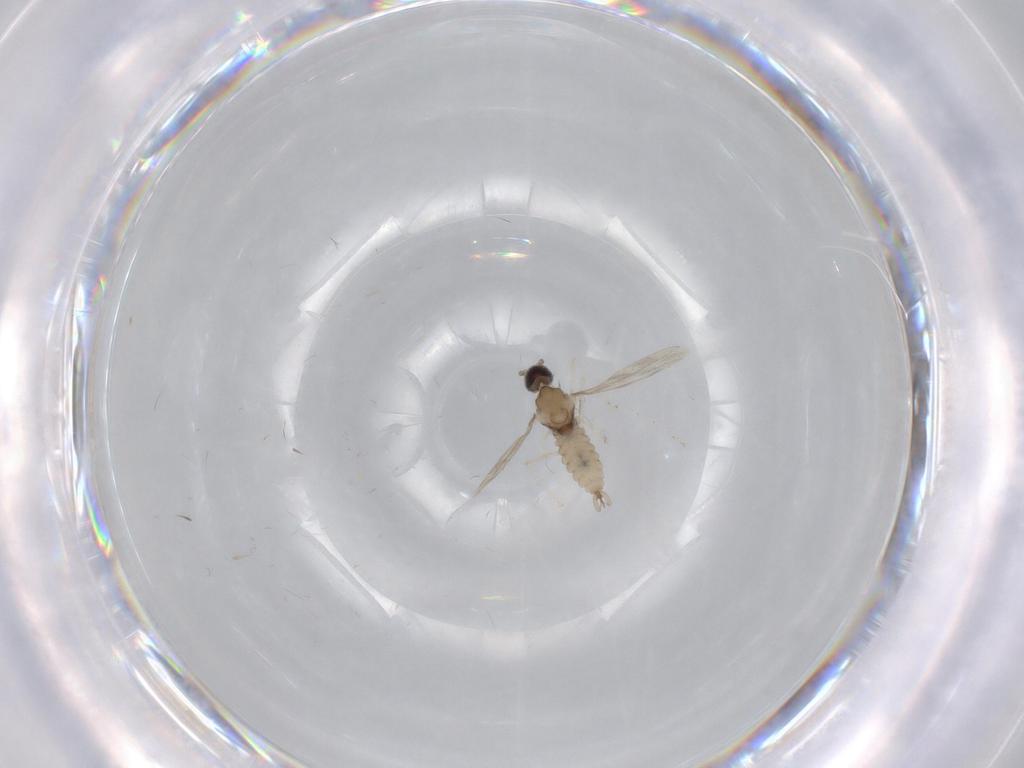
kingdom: Animalia
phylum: Arthropoda
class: Insecta
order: Diptera
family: Cecidomyiidae
